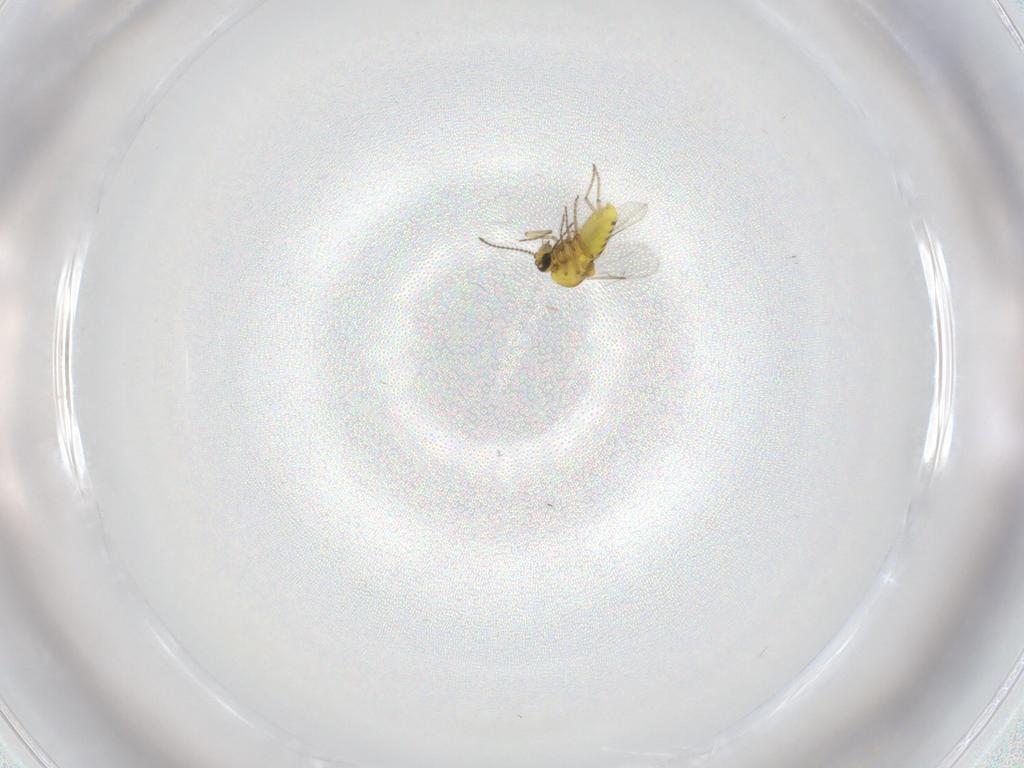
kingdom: Animalia
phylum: Arthropoda
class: Insecta
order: Diptera
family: Ceratopogonidae
